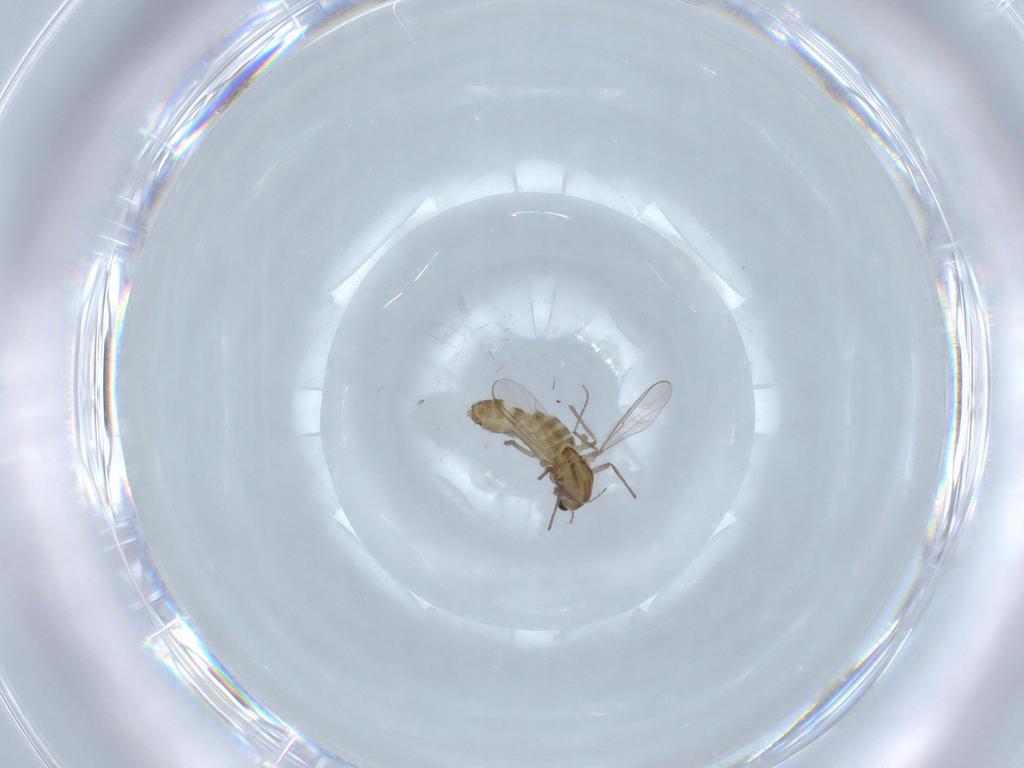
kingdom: Animalia
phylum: Arthropoda
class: Insecta
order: Diptera
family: Chironomidae
